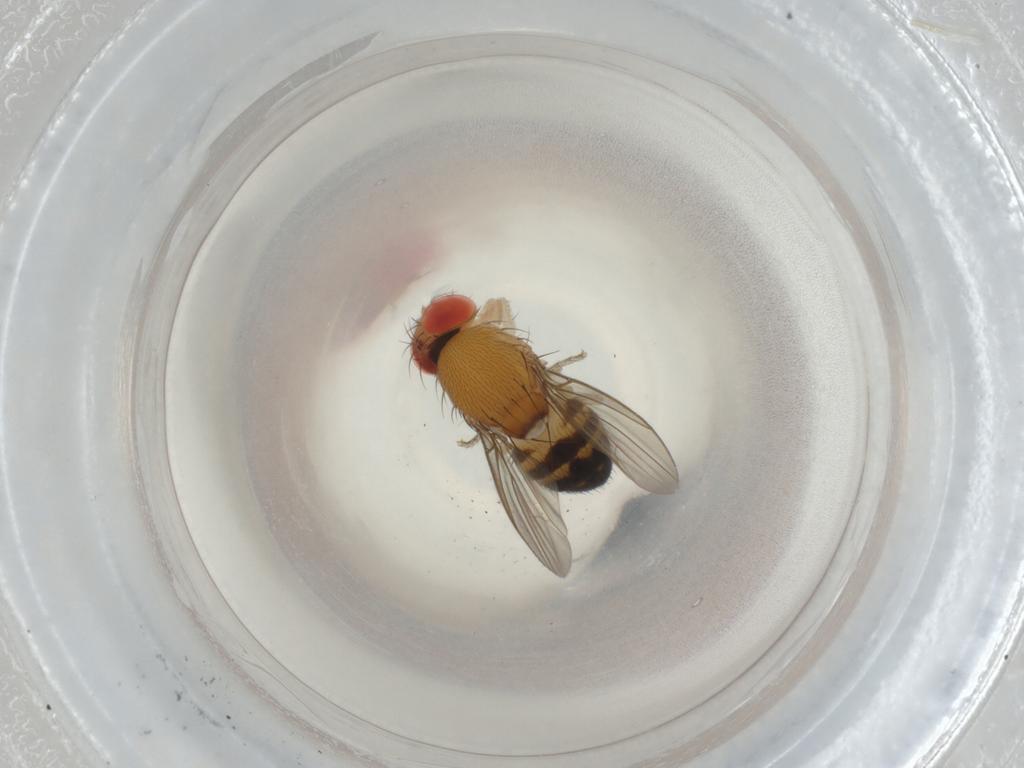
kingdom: Animalia
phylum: Arthropoda
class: Insecta
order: Diptera
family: Drosophilidae
